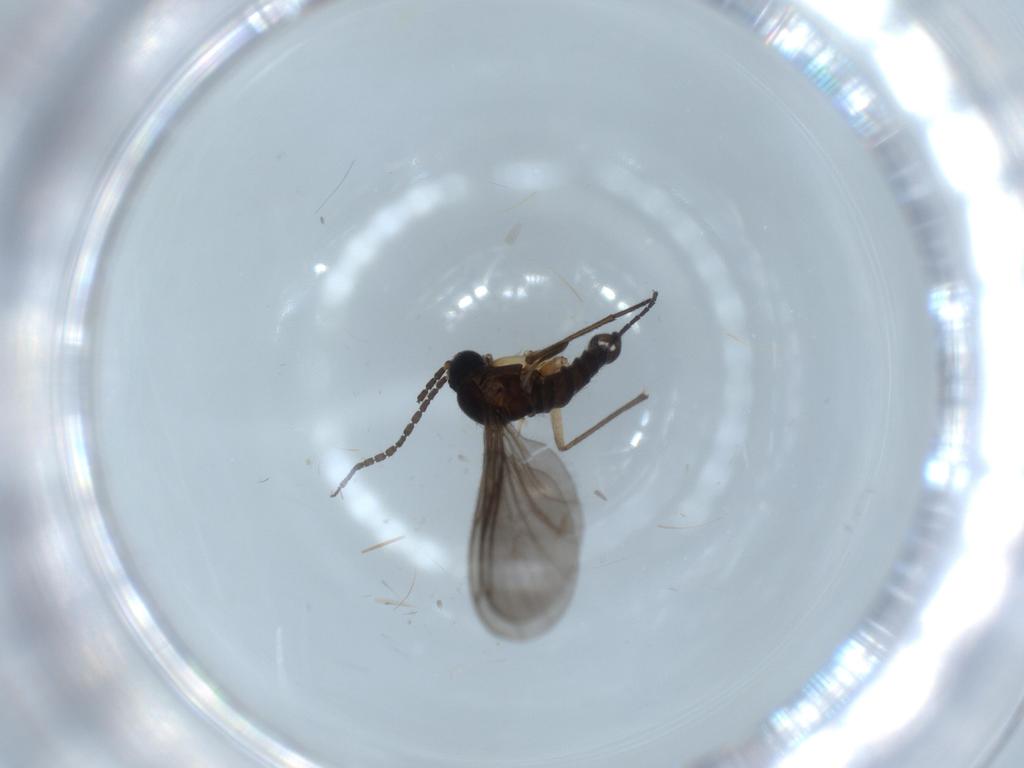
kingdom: Animalia
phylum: Arthropoda
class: Insecta
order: Diptera
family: Sciaridae
